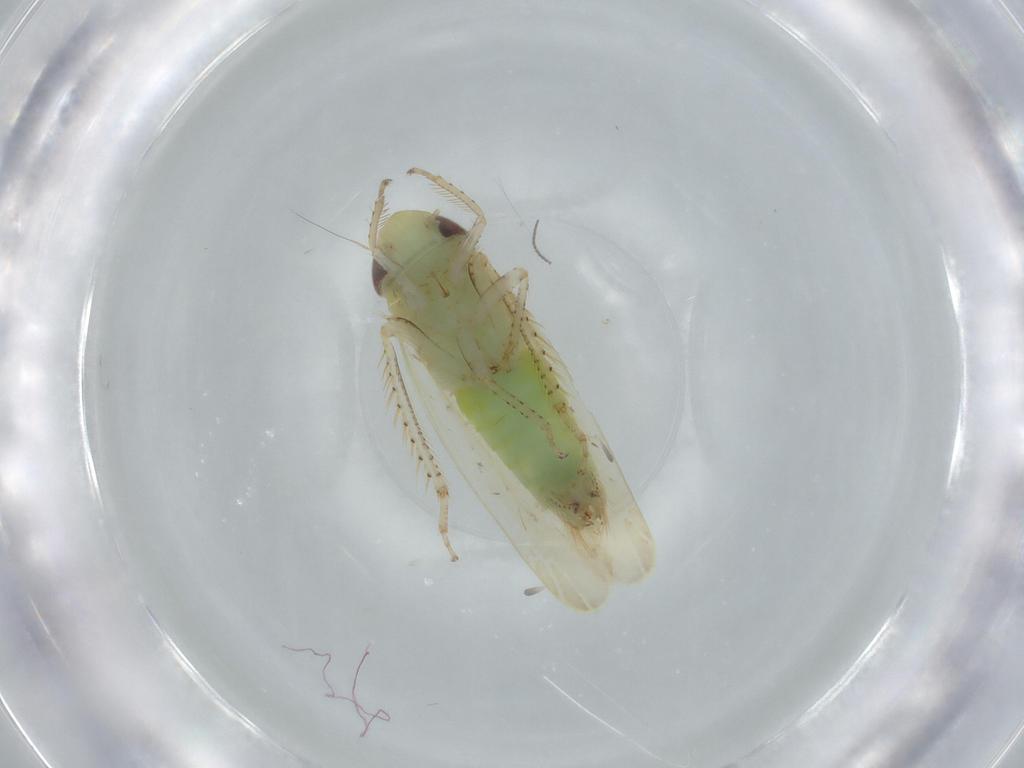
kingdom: Animalia
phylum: Arthropoda
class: Insecta
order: Hemiptera
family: Cicadellidae
